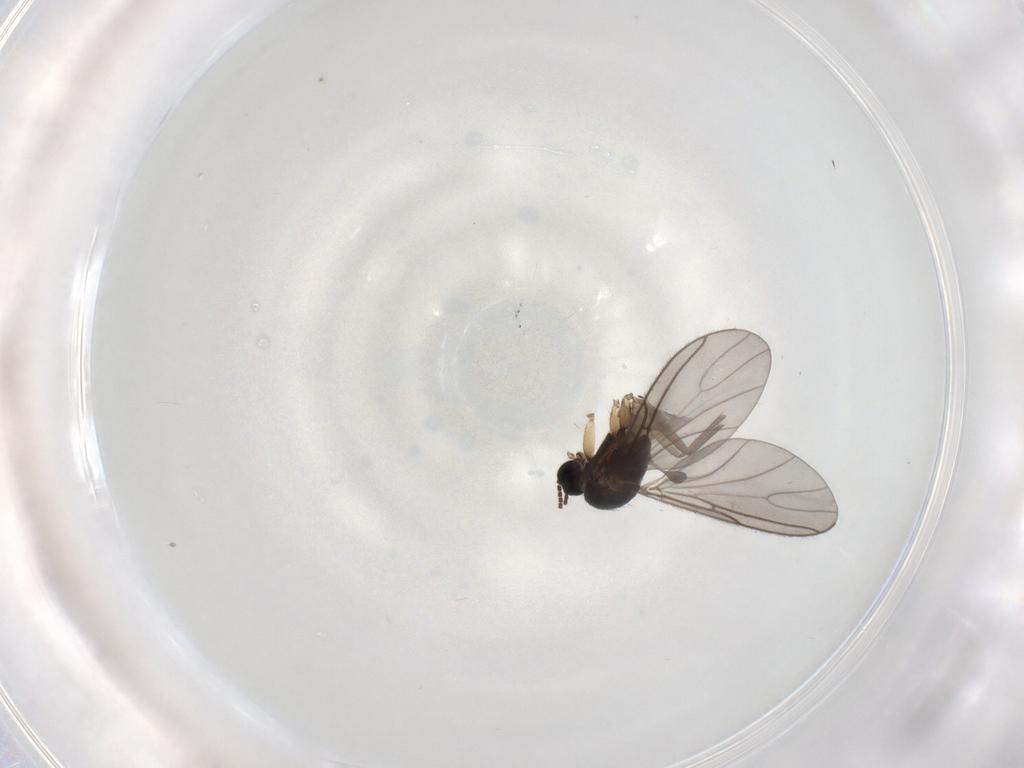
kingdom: Animalia
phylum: Arthropoda
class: Insecta
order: Diptera
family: Sciaridae
